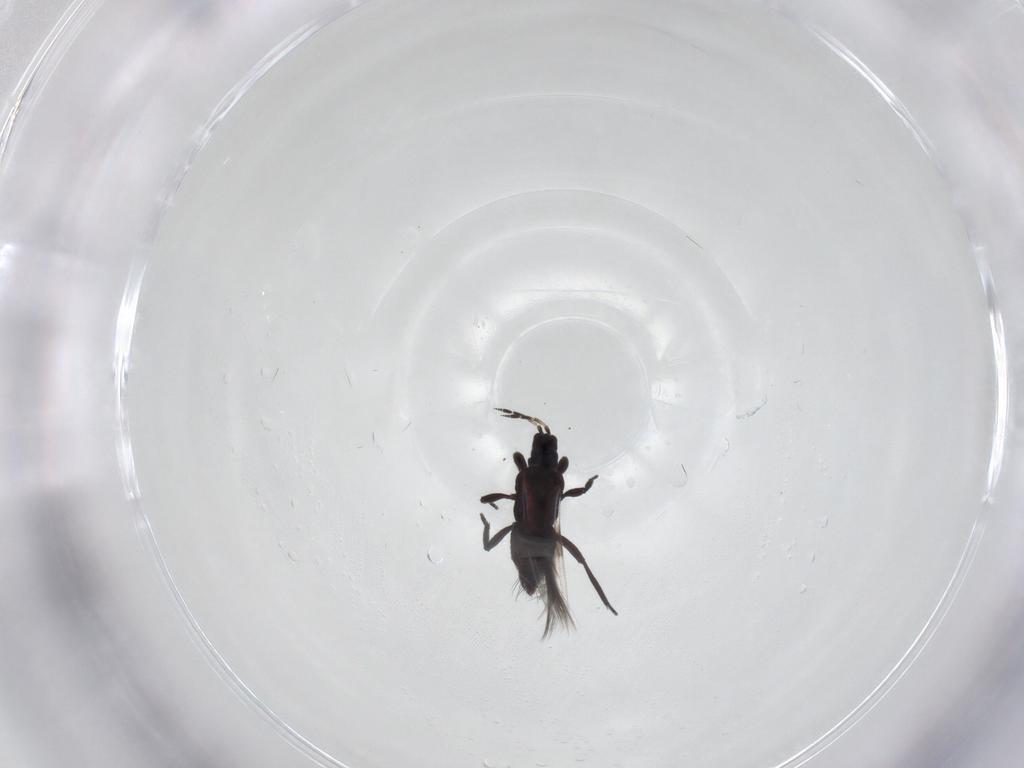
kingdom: Animalia
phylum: Arthropoda
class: Insecta
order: Thysanoptera
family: Aeolothripidae
